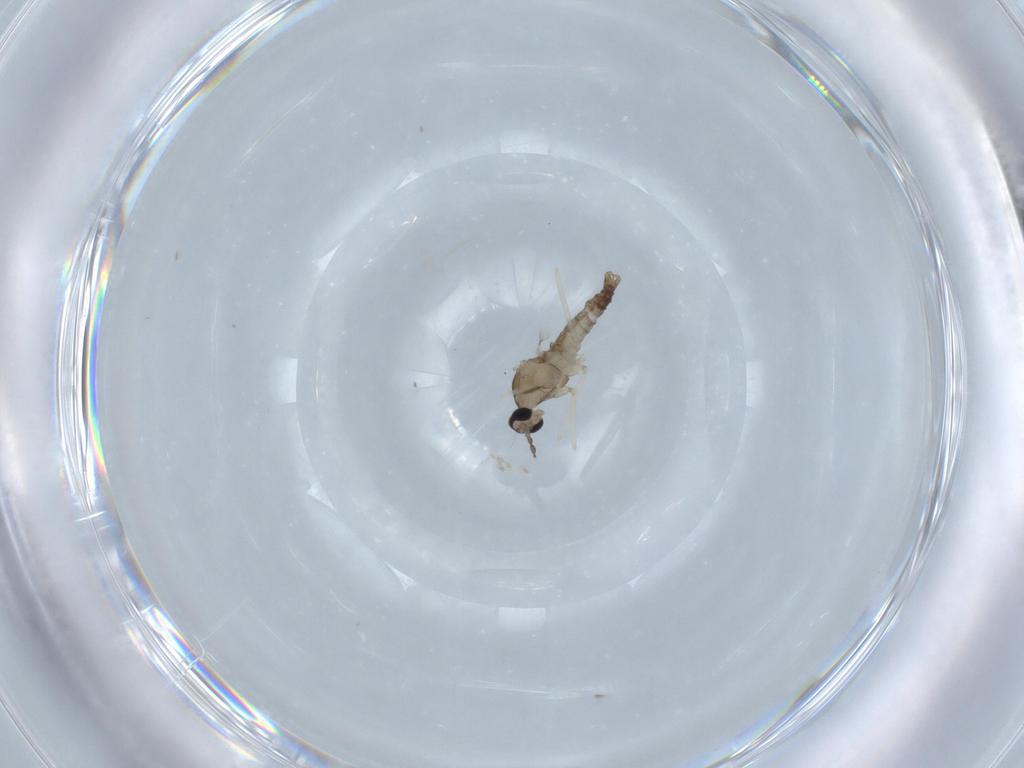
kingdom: Animalia
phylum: Arthropoda
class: Insecta
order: Diptera
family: Cecidomyiidae
